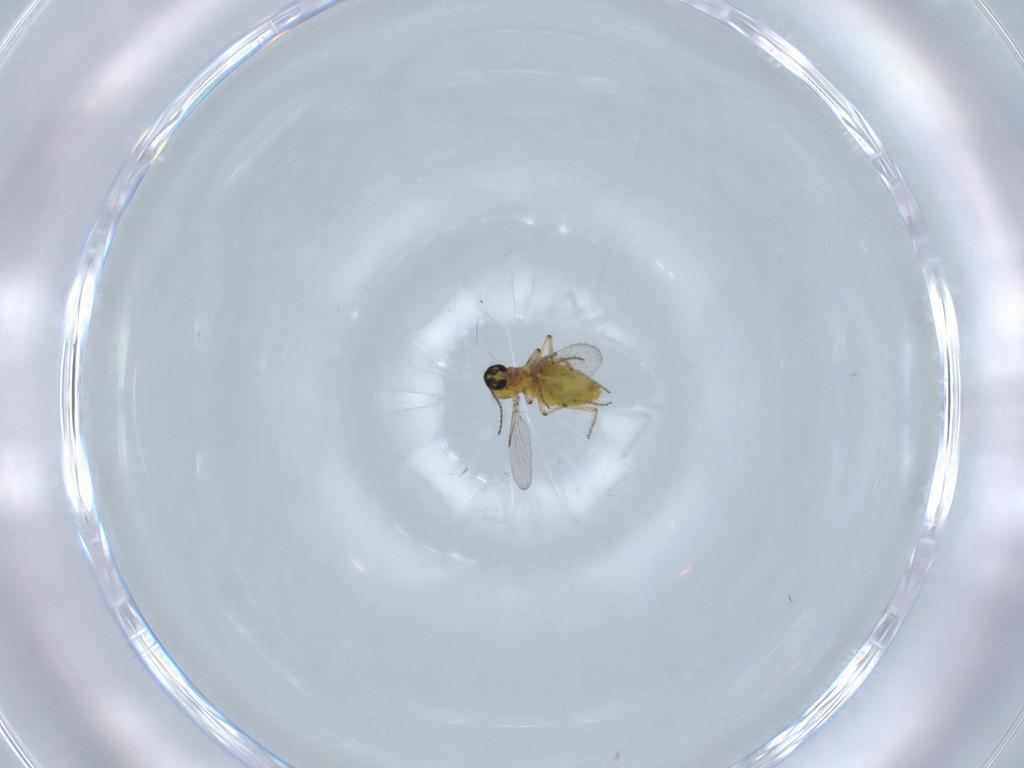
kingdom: Animalia
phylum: Arthropoda
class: Insecta
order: Diptera
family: Ceratopogonidae
